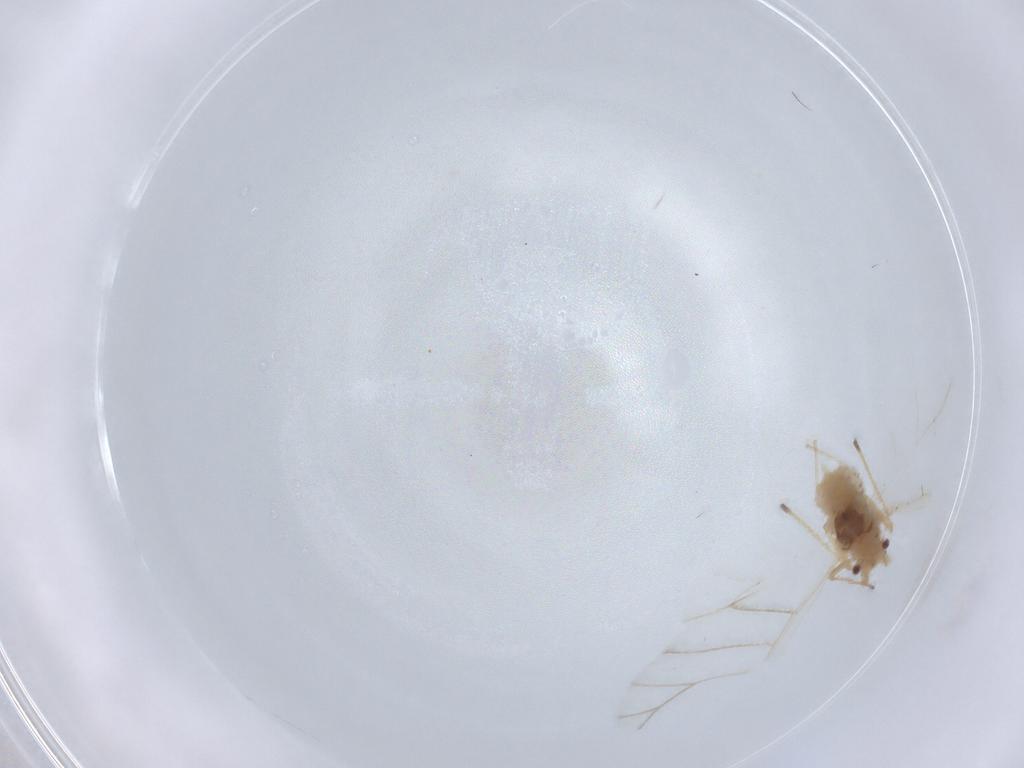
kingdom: Animalia
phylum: Arthropoda
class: Insecta
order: Hemiptera
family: Aphididae
